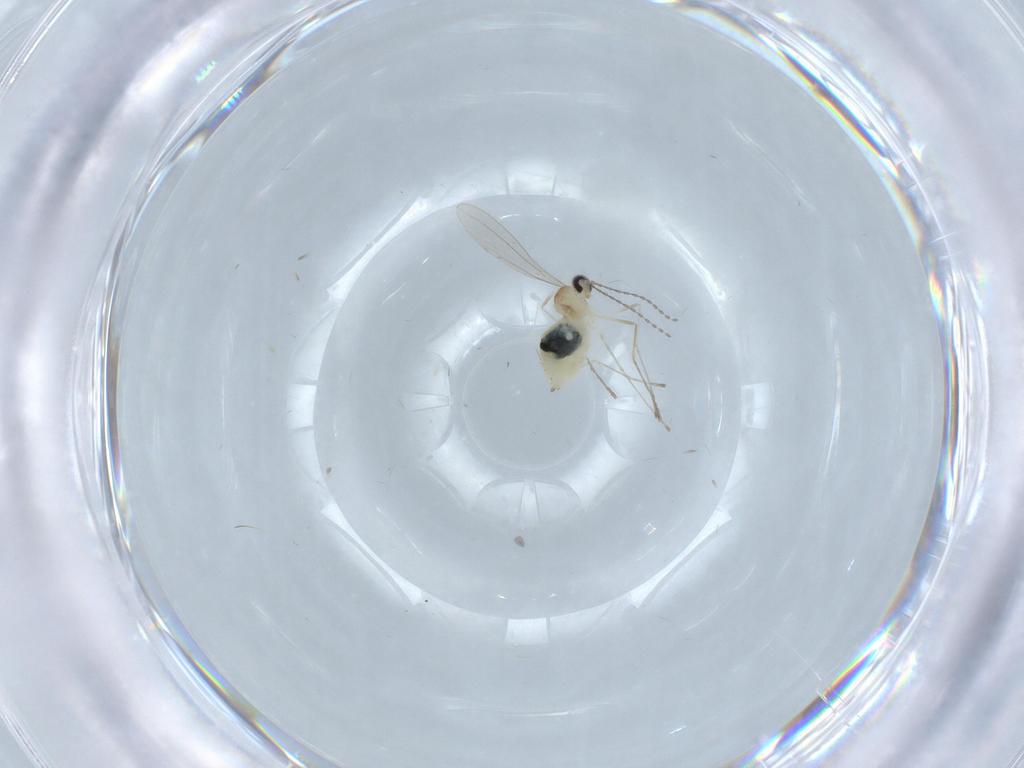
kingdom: Animalia
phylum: Arthropoda
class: Insecta
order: Diptera
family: Cecidomyiidae
